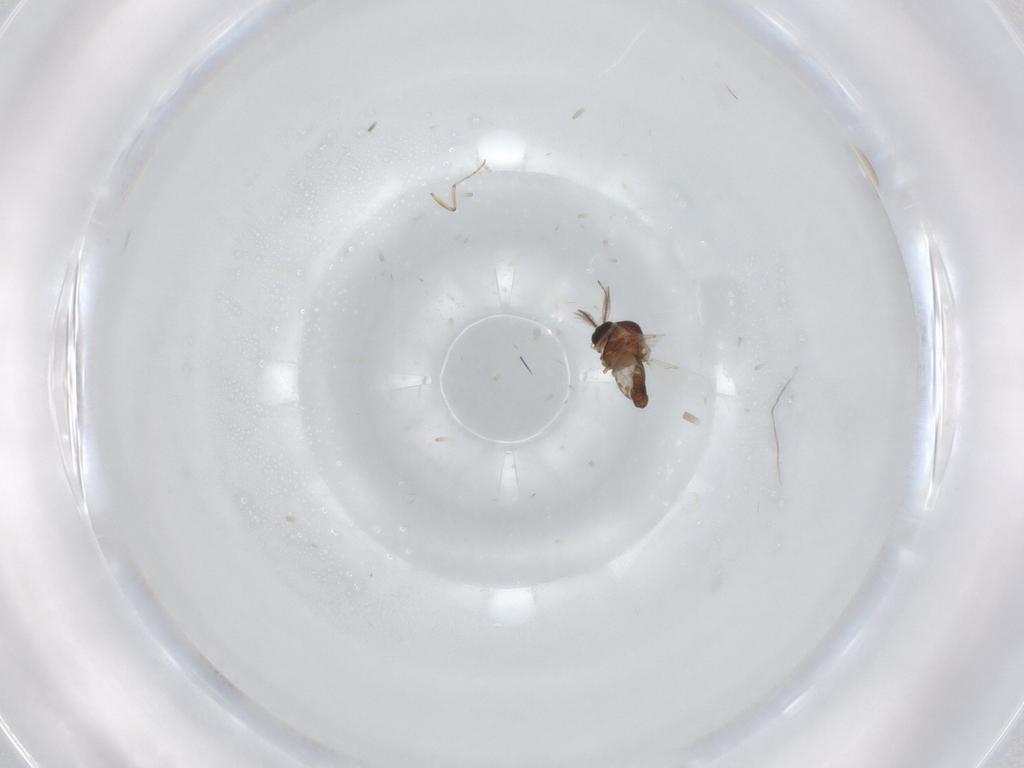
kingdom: Animalia
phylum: Arthropoda
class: Insecta
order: Diptera
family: Ceratopogonidae
